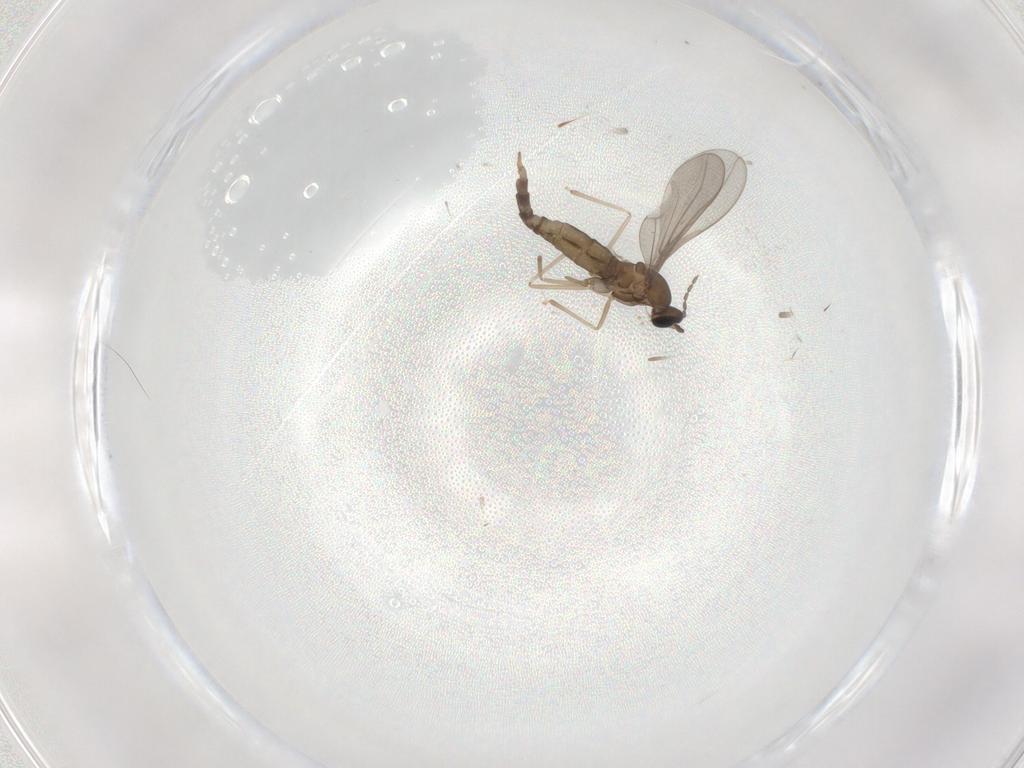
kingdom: Animalia
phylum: Arthropoda
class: Insecta
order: Diptera
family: Cecidomyiidae
